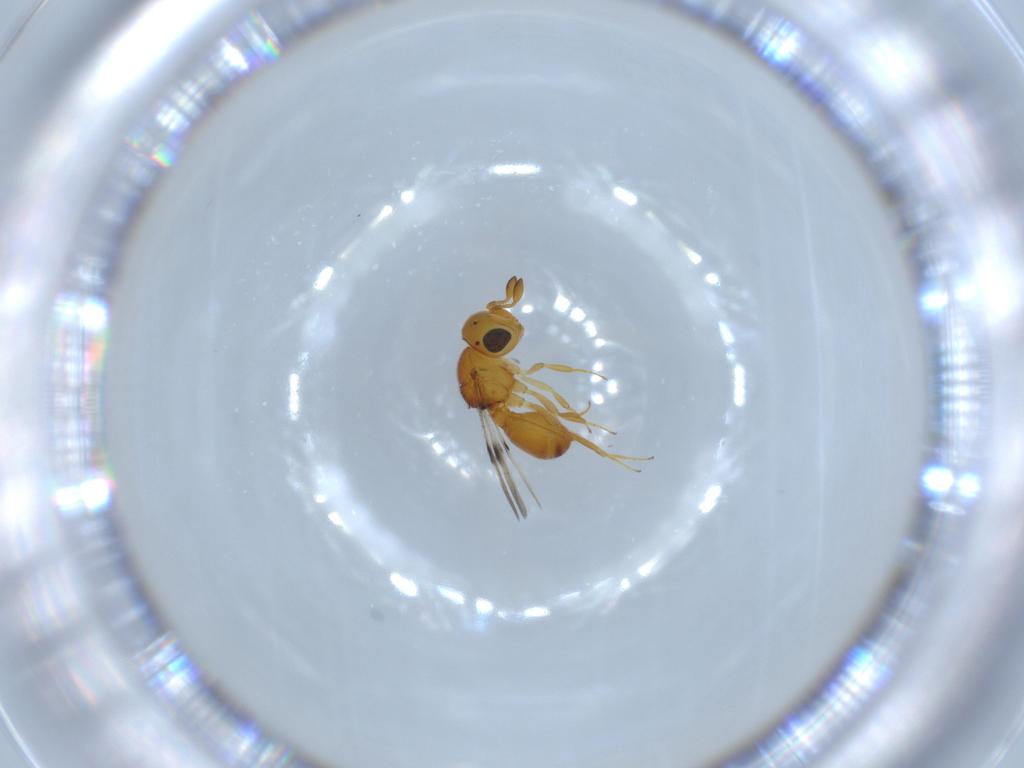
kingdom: Animalia
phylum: Arthropoda
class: Insecta
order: Hymenoptera
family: Scelionidae
